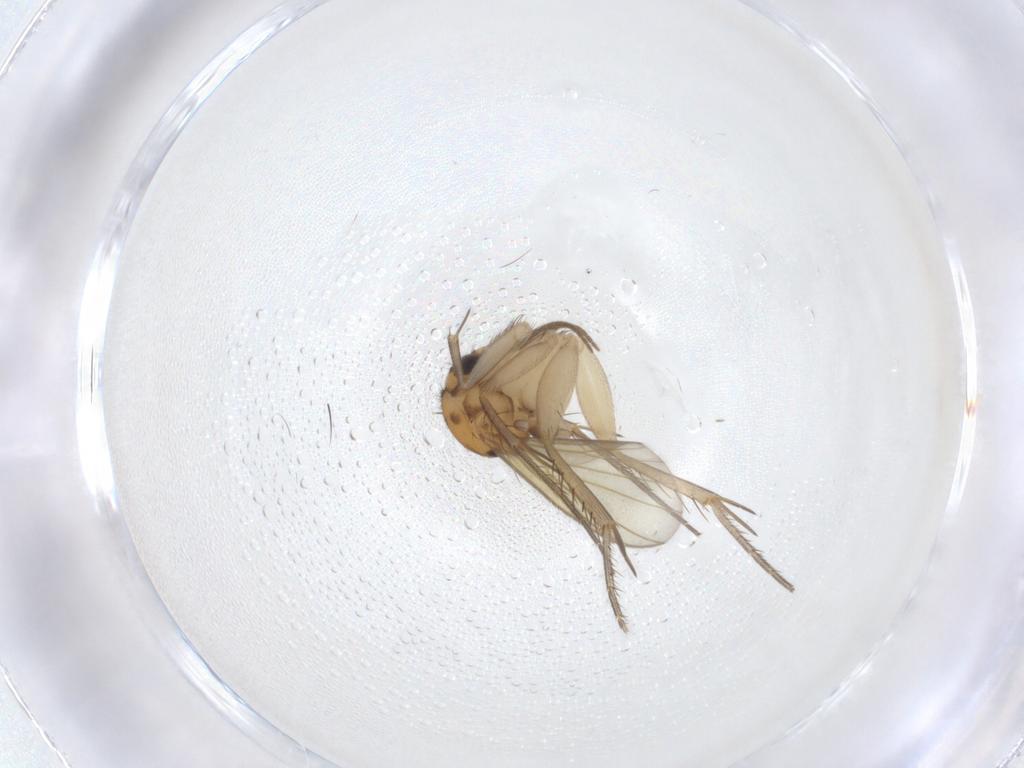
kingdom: Animalia
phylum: Arthropoda
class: Insecta
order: Diptera
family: Mycetophilidae
